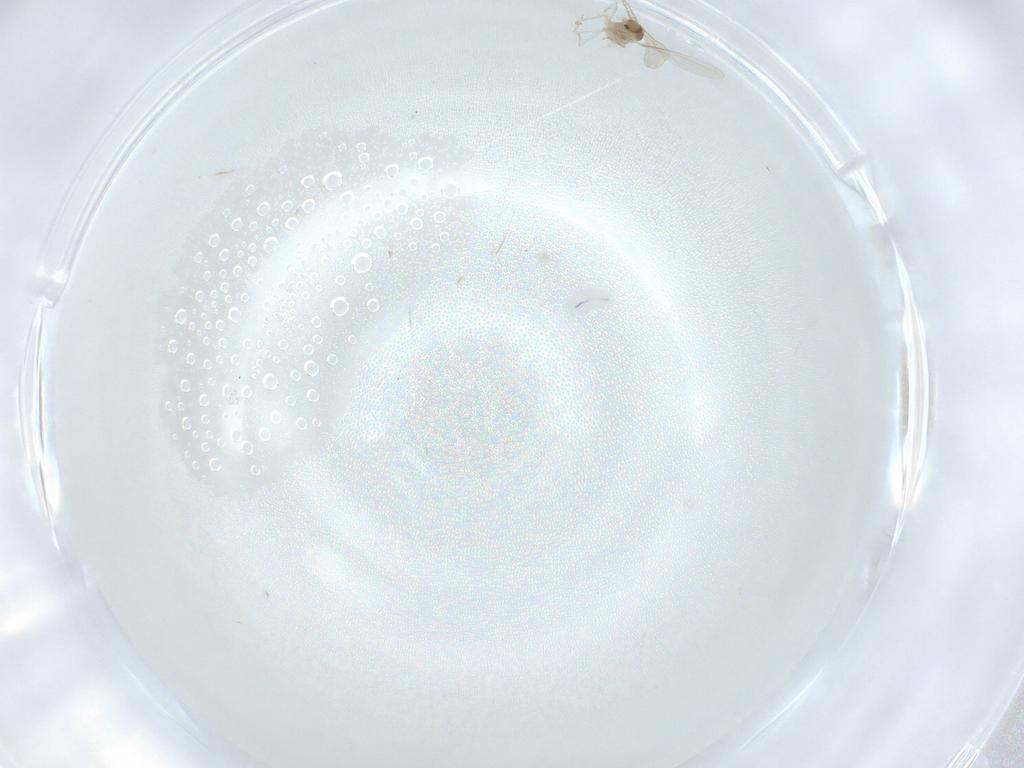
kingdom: Animalia
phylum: Arthropoda
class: Insecta
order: Diptera
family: Cecidomyiidae
